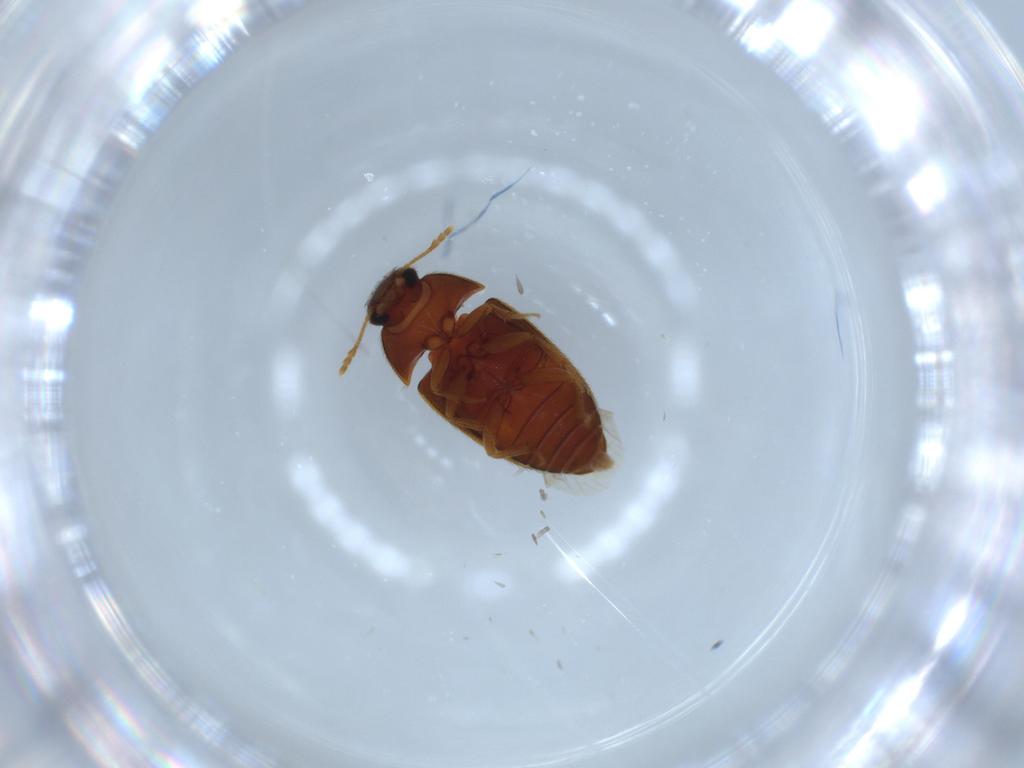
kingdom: Animalia
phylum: Arthropoda
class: Insecta
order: Coleoptera
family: Mycetophagidae
